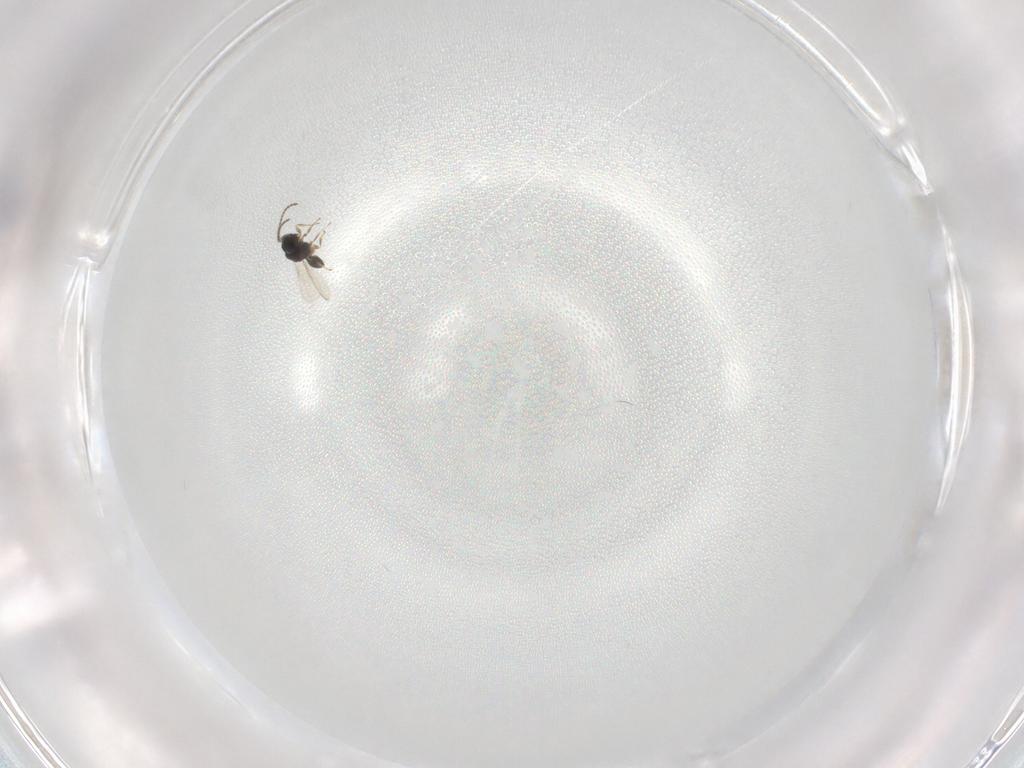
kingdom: Animalia
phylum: Arthropoda
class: Insecta
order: Hymenoptera
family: Scelionidae
